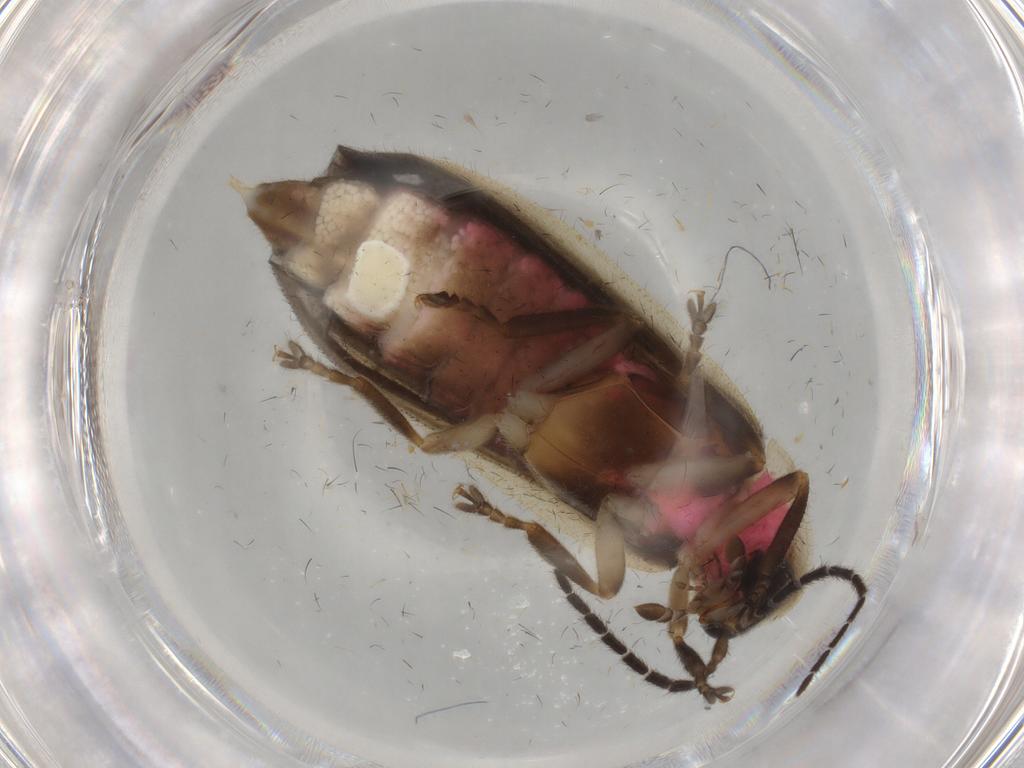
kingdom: Animalia
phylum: Arthropoda
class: Insecta
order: Coleoptera
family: Lampyridae
